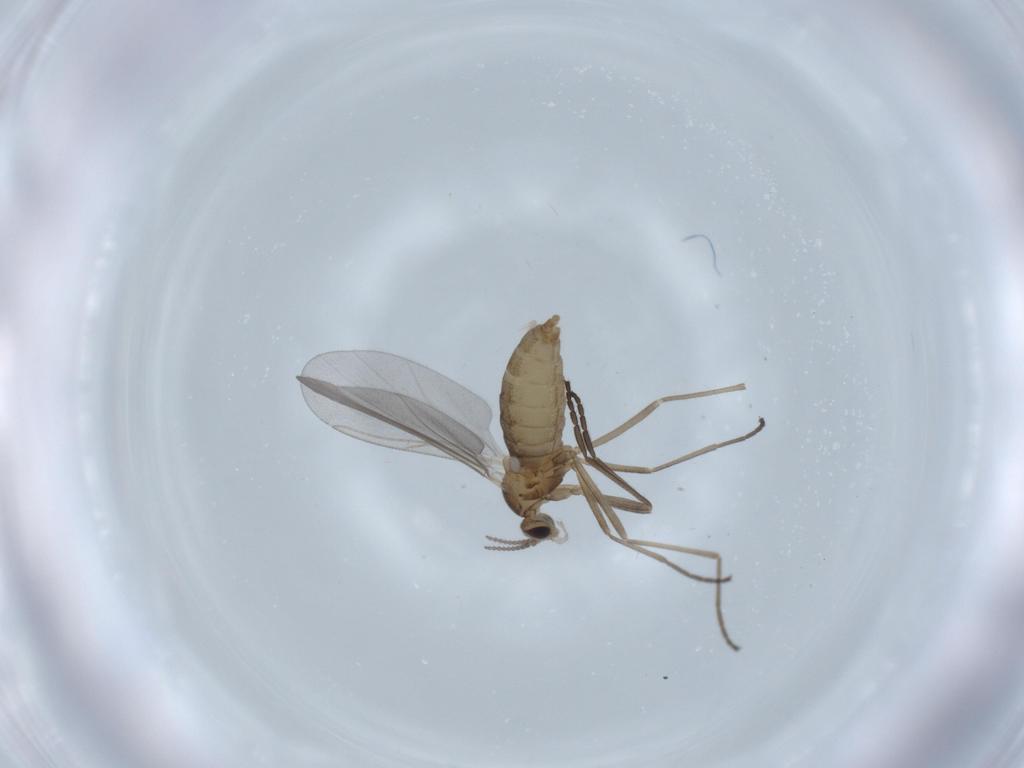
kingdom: Animalia
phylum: Arthropoda
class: Insecta
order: Diptera
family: Cecidomyiidae
